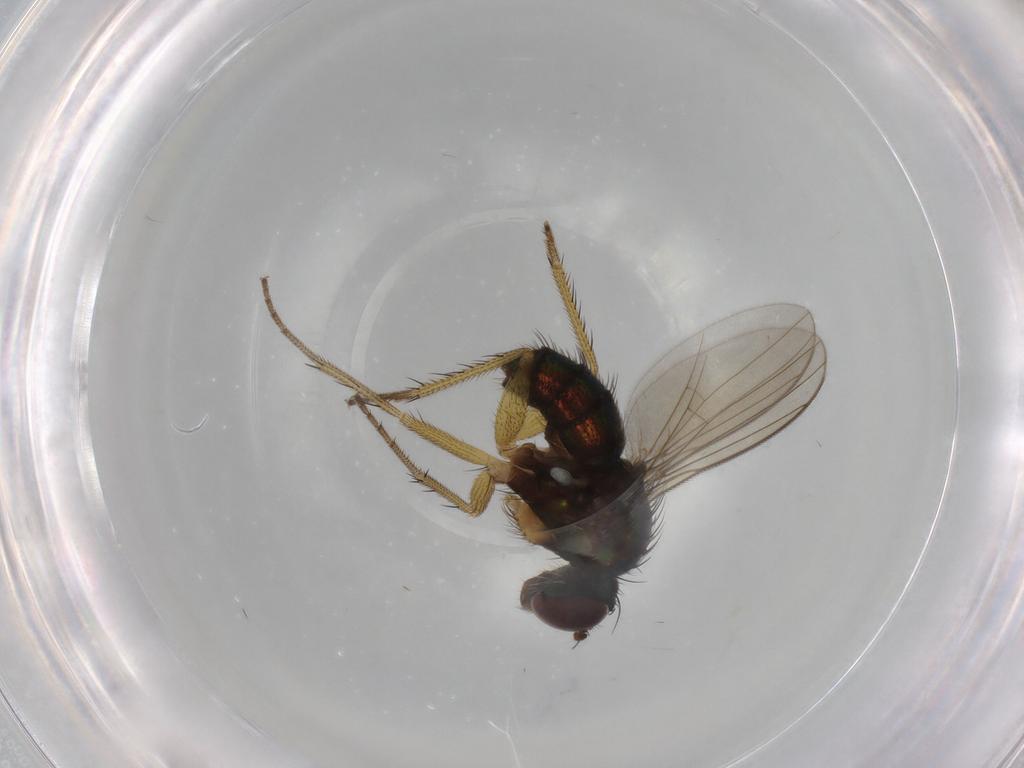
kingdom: Animalia
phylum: Arthropoda
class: Insecta
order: Diptera
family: Dolichopodidae
